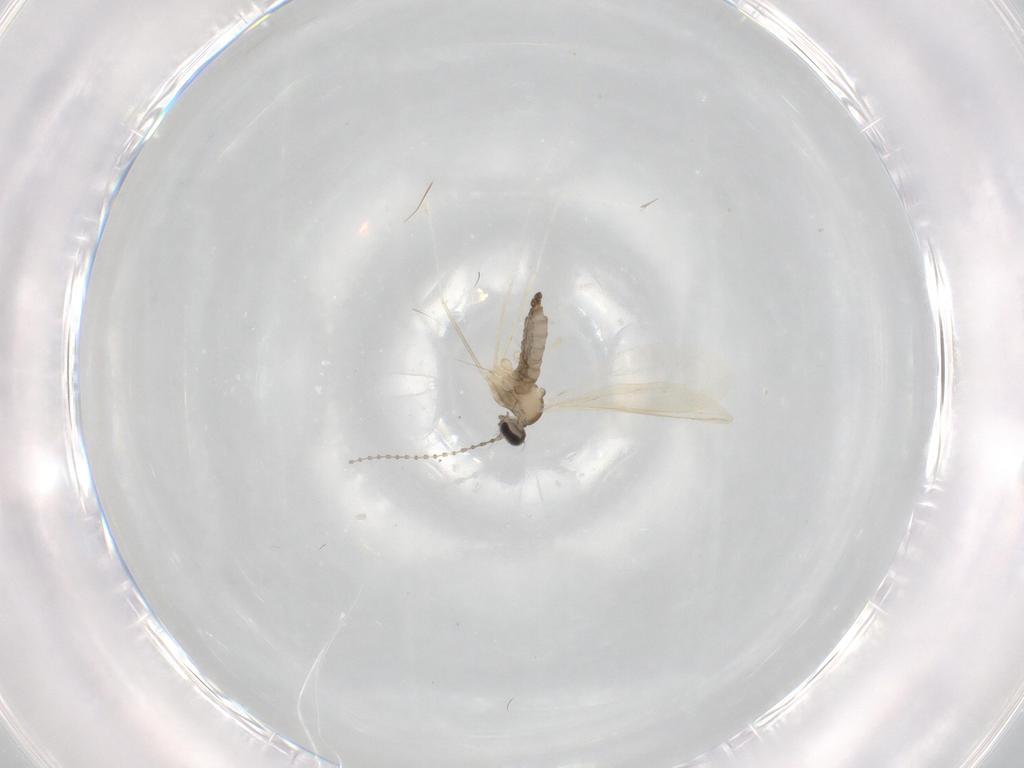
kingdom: Animalia
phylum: Arthropoda
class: Insecta
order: Diptera
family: Cecidomyiidae
